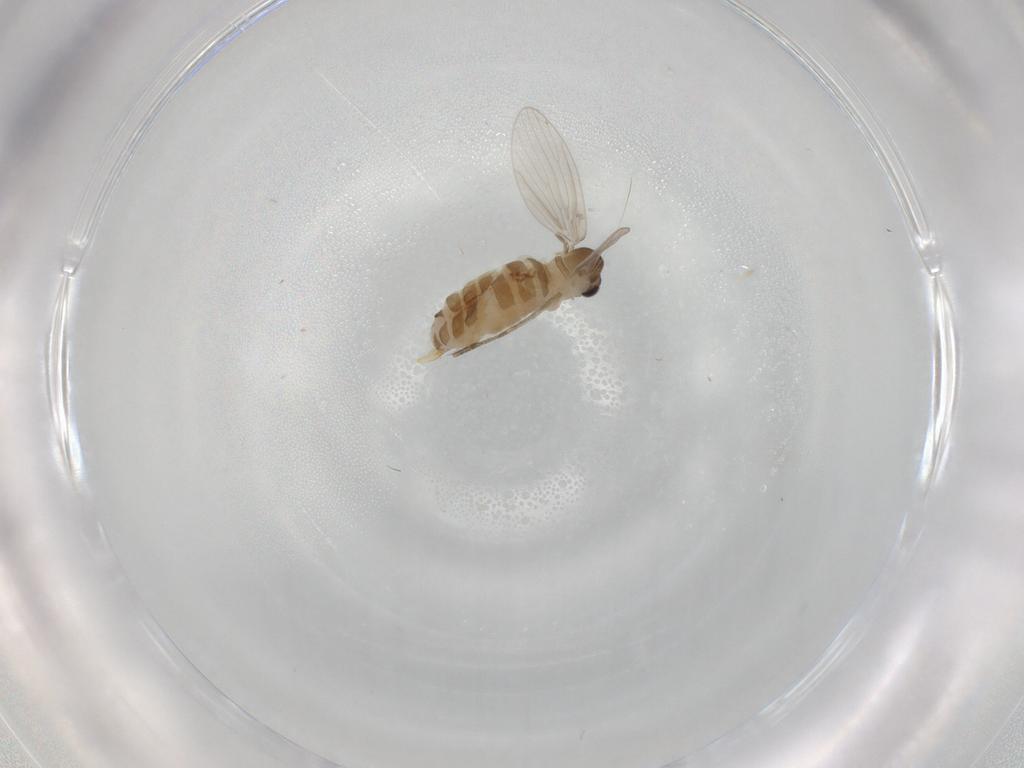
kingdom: Animalia
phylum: Arthropoda
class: Insecta
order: Diptera
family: Psychodidae
